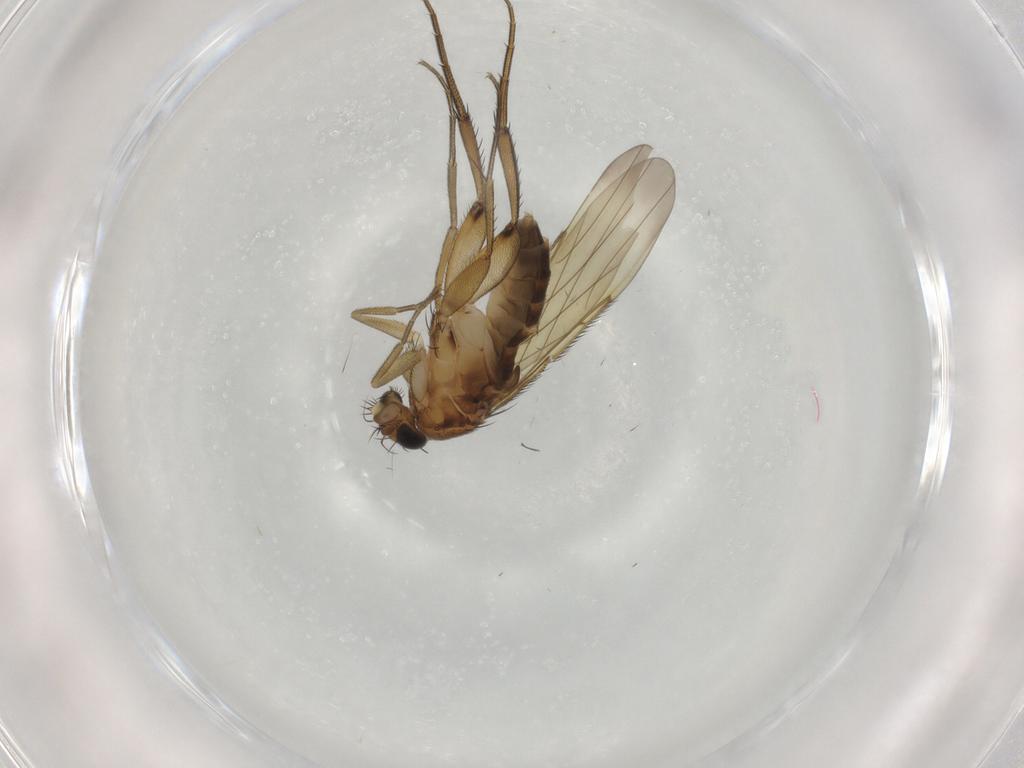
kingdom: Animalia
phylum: Arthropoda
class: Insecta
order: Diptera
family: Phoridae
